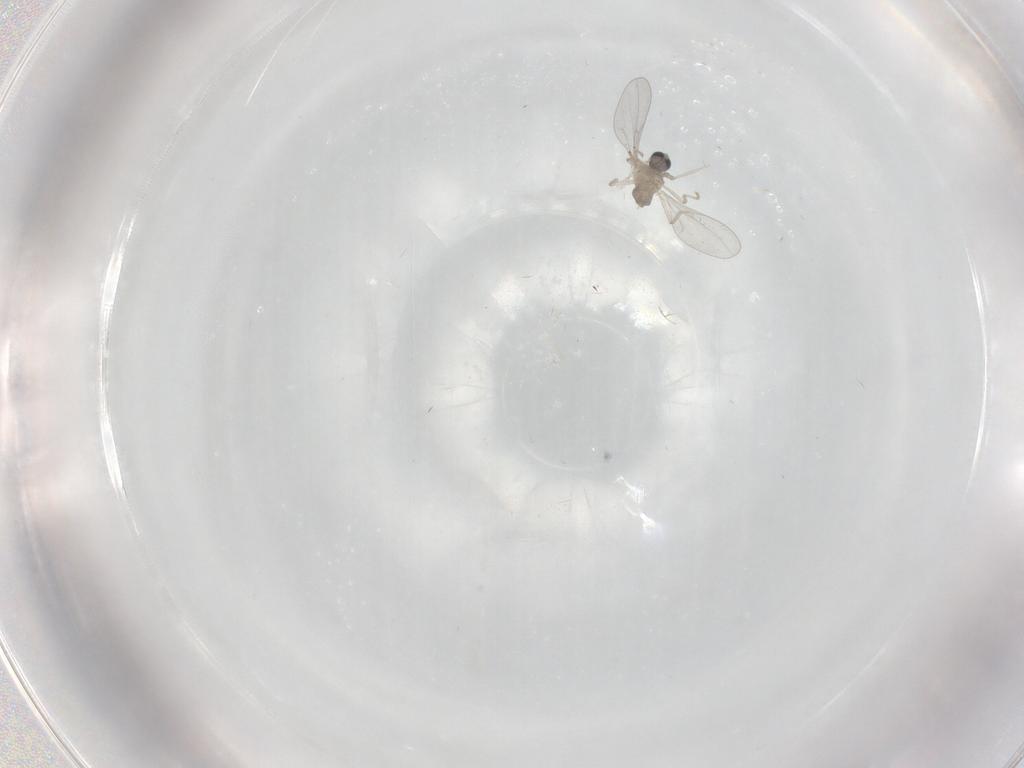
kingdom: Animalia
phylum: Arthropoda
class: Insecta
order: Diptera
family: Cecidomyiidae
